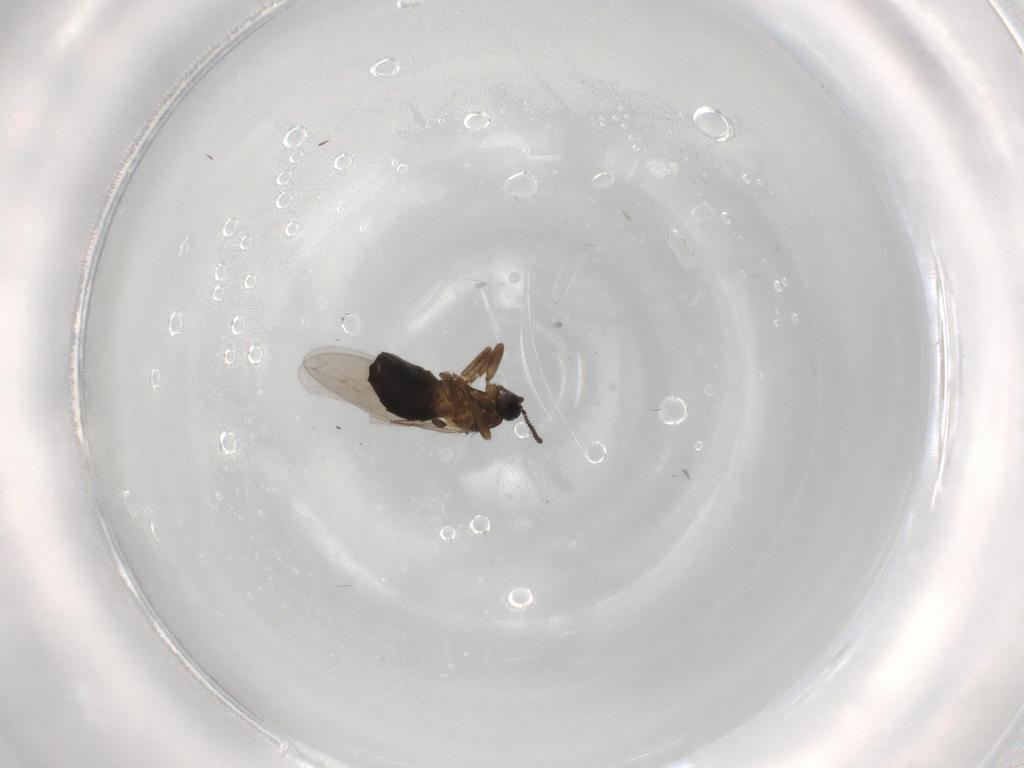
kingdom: Animalia
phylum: Arthropoda
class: Insecta
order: Diptera
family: Scatopsidae
